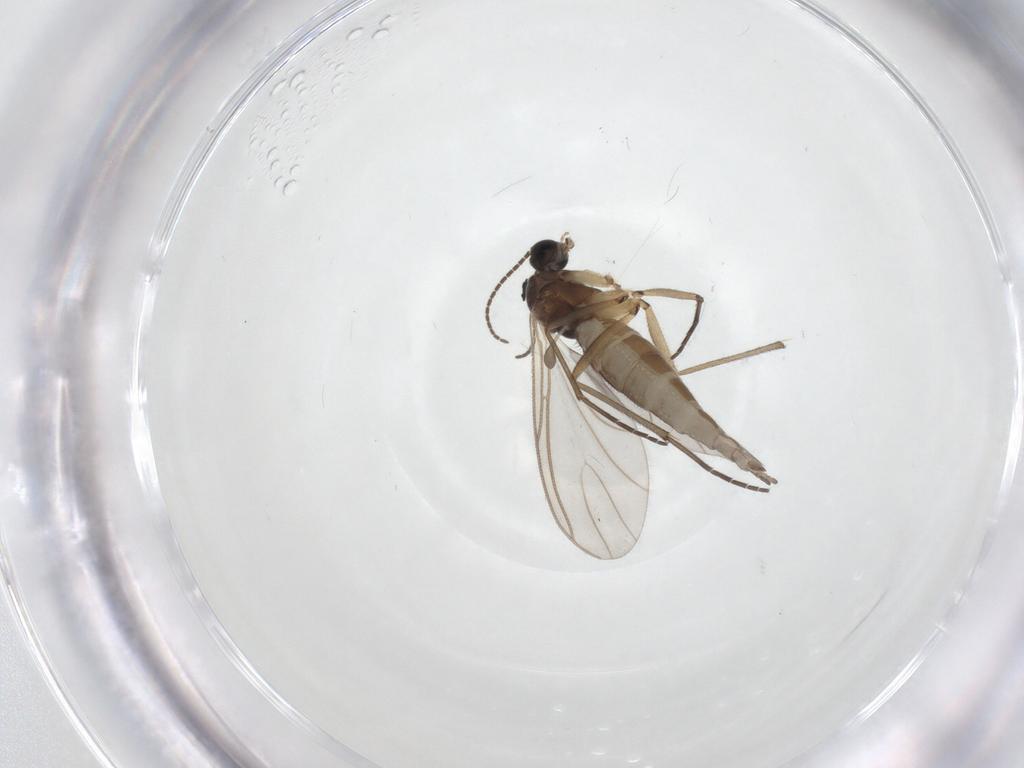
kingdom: Animalia
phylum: Arthropoda
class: Insecta
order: Diptera
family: Sciaridae
